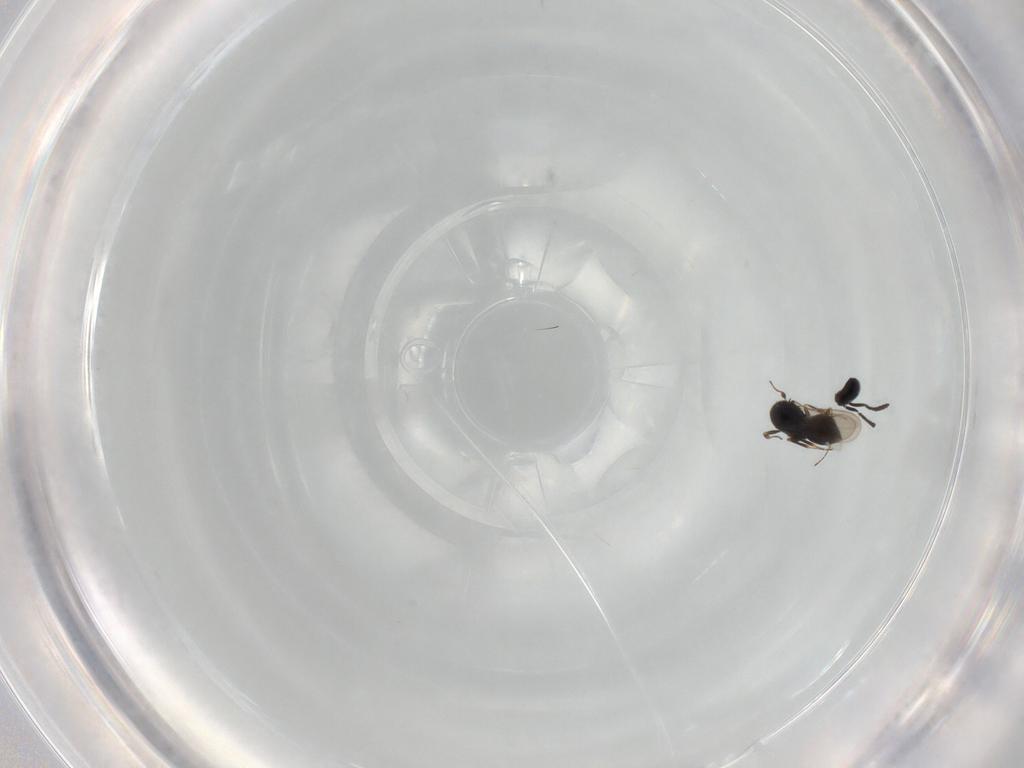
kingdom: Animalia
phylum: Arthropoda
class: Insecta
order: Hymenoptera
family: Scelionidae
